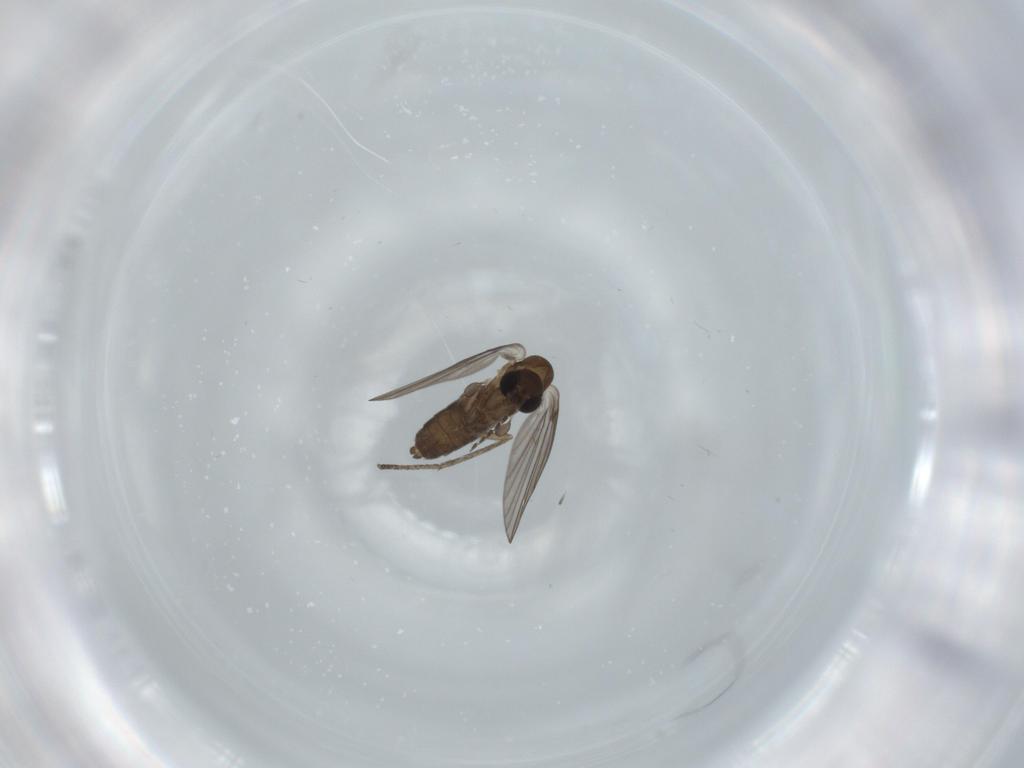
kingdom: Animalia
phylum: Arthropoda
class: Insecta
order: Diptera
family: Psychodidae
